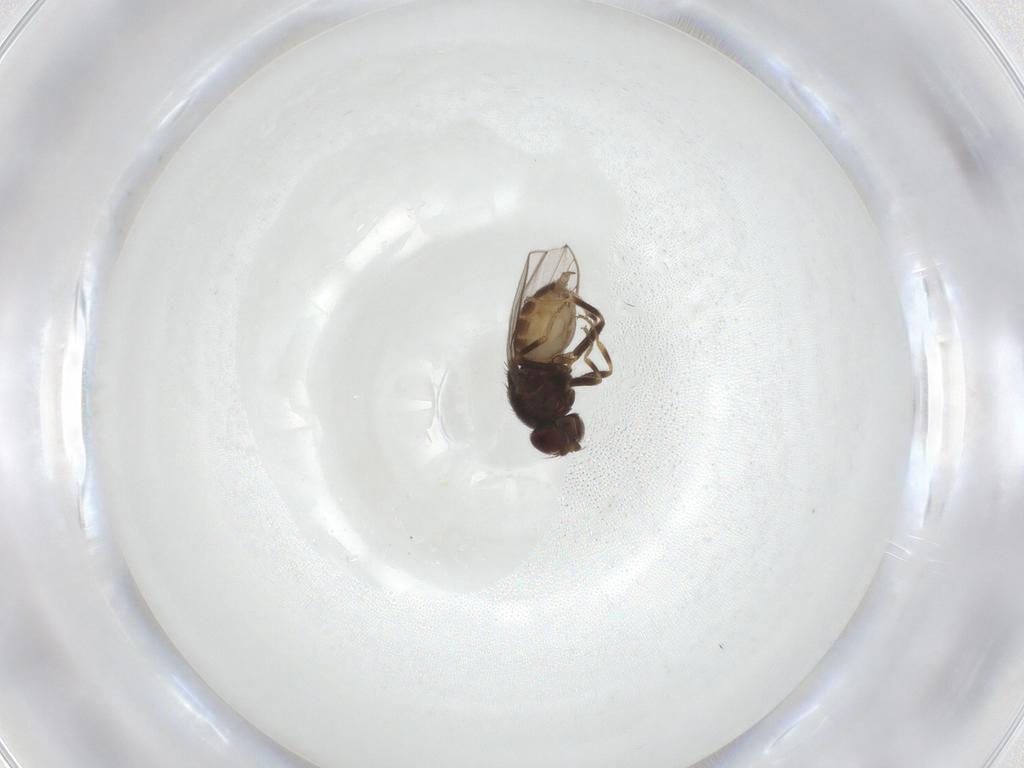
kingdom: Animalia
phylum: Arthropoda
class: Insecta
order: Diptera
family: Chloropidae
